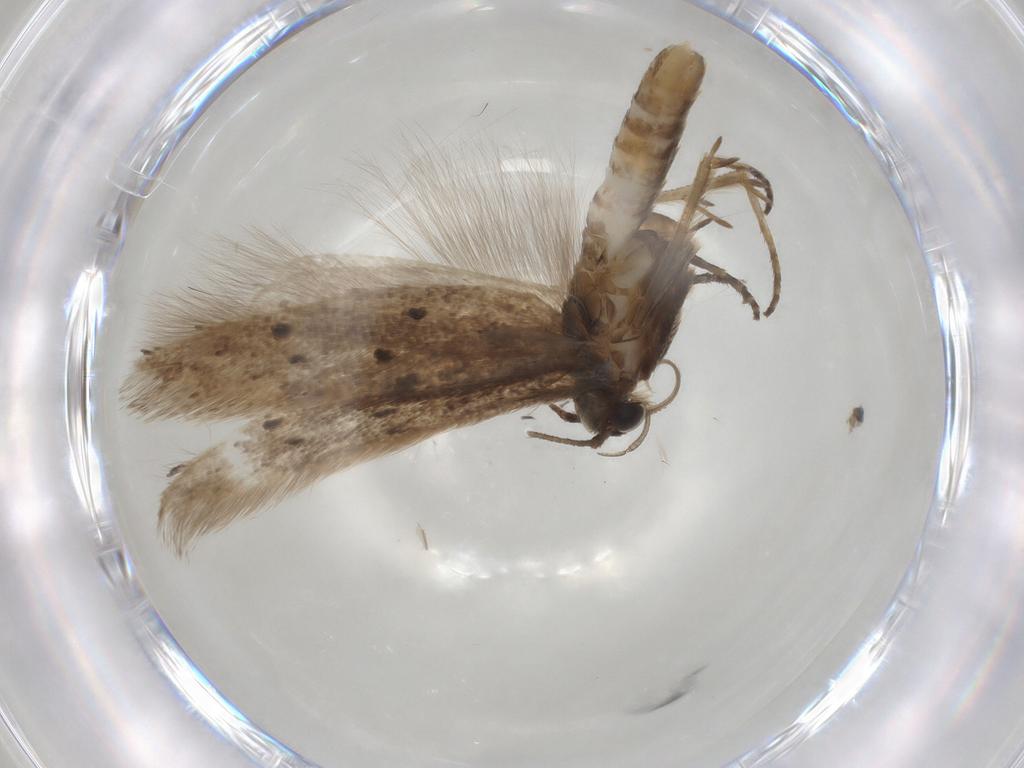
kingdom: Animalia
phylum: Arthropoda
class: Insecta
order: Lepidoptera
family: Gelechiidae
